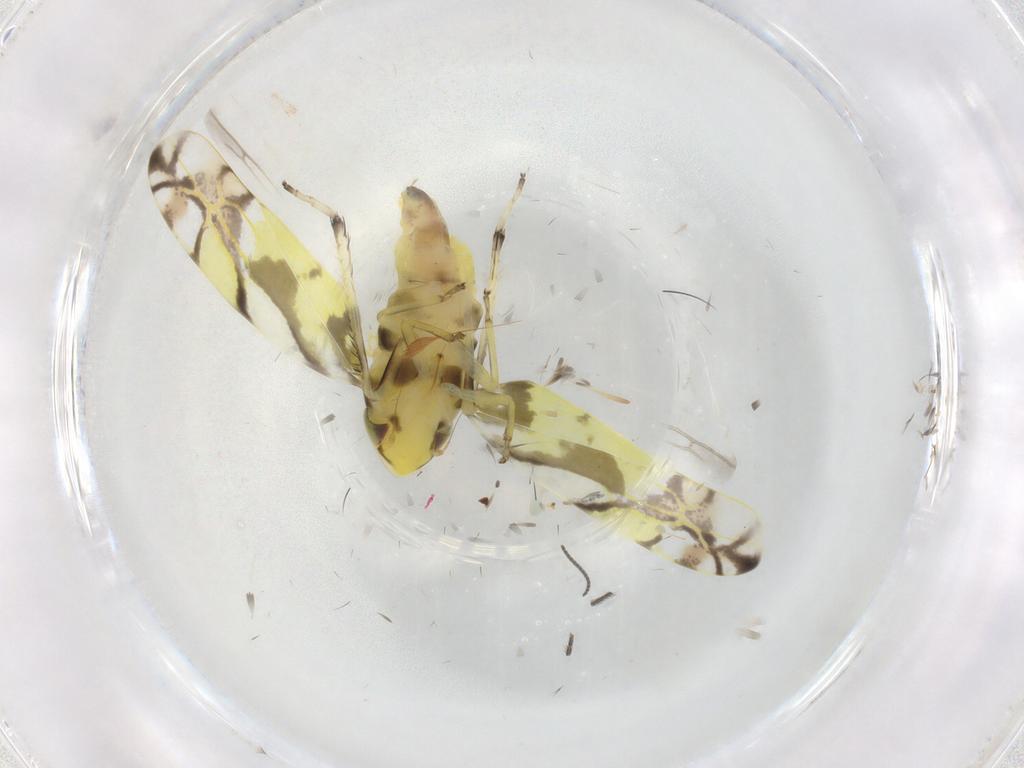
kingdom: Animalia
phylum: Arthropoda
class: Insecta
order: Hemiptera
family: Cicadellidae
